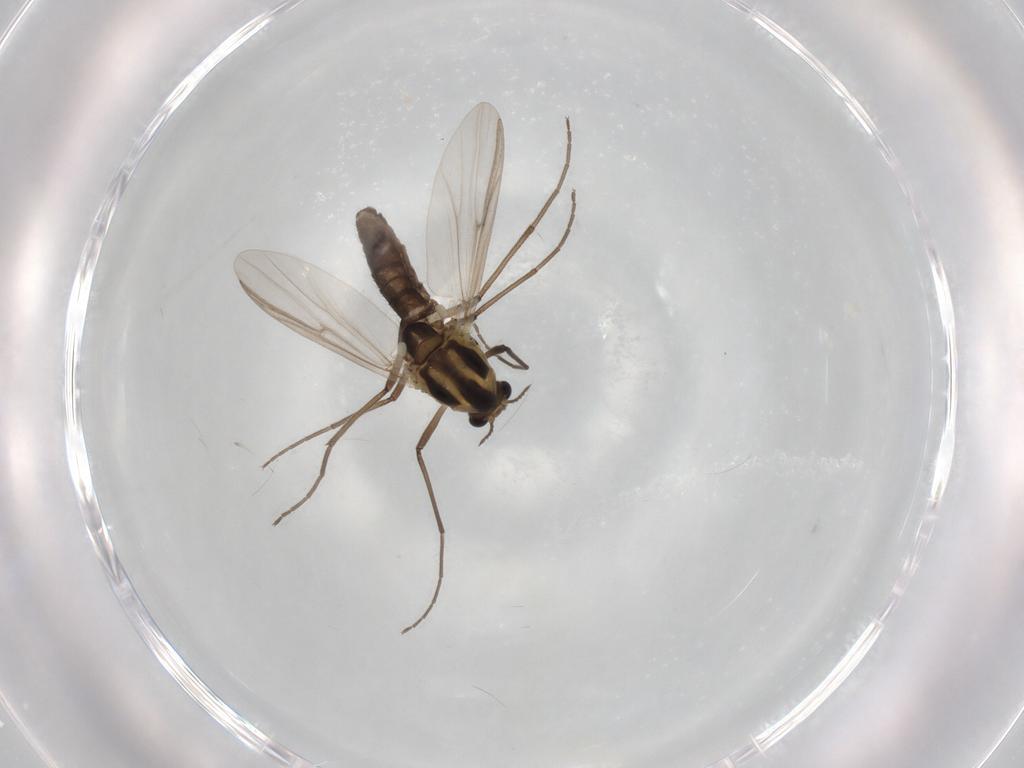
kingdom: Animalia
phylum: Arthropoda
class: Insecta
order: Diptera
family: Chironomidae
